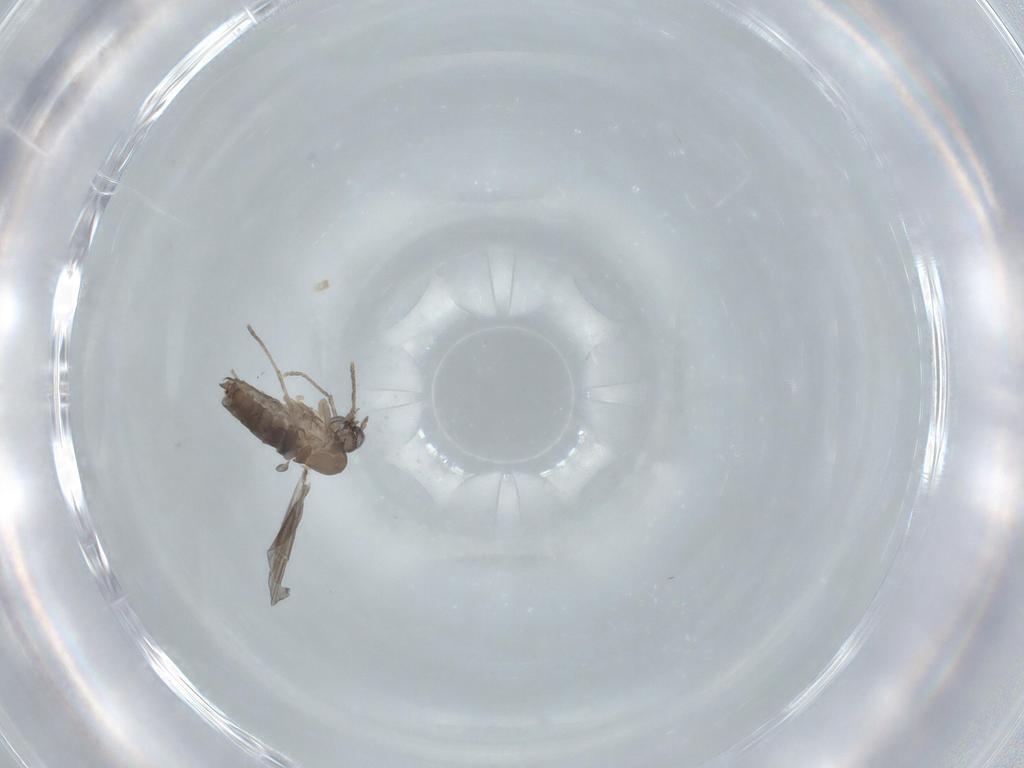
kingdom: Animalia
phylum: Arthropoda
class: Insecta
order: Diptera
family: Psychodidae
